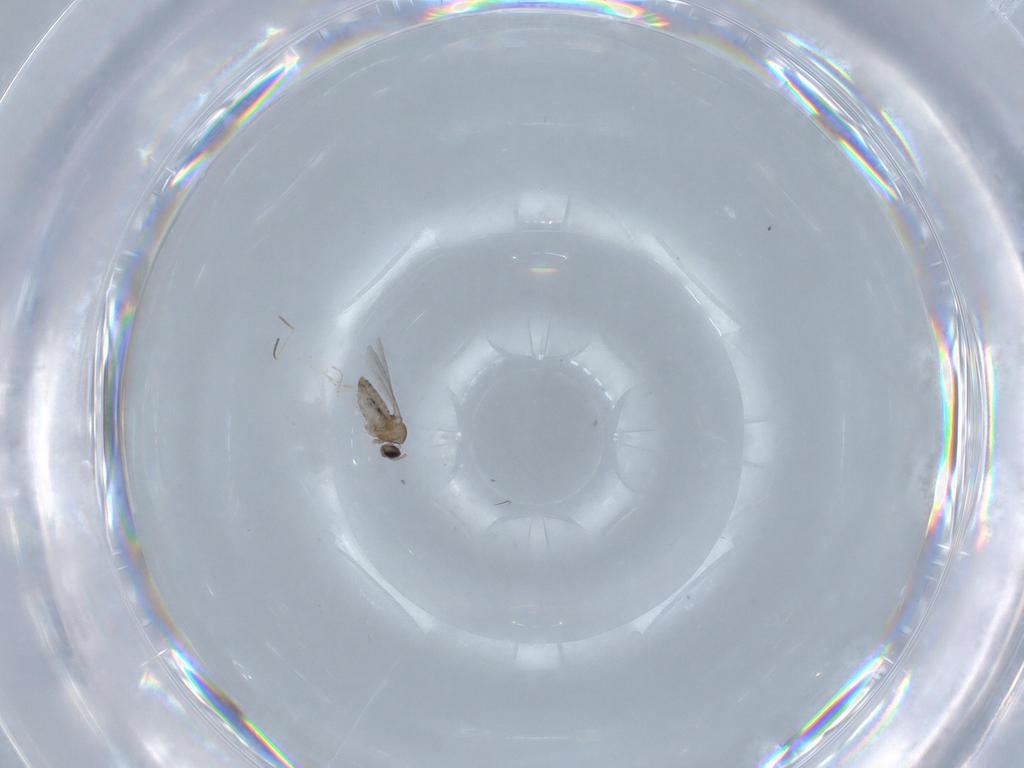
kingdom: Animalia
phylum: Arthropoda
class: Insecta
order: Diptera
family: Cecidomyiidae
